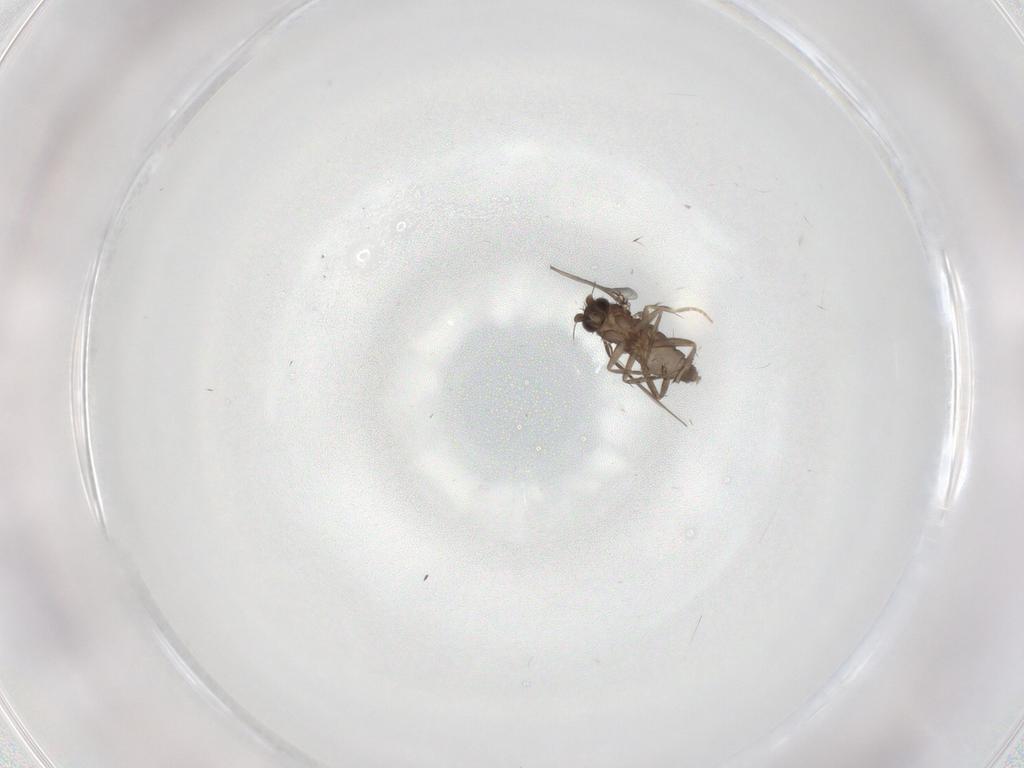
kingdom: Animalia
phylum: Arthropoda
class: Insecta
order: Diptera
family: Phoridae
